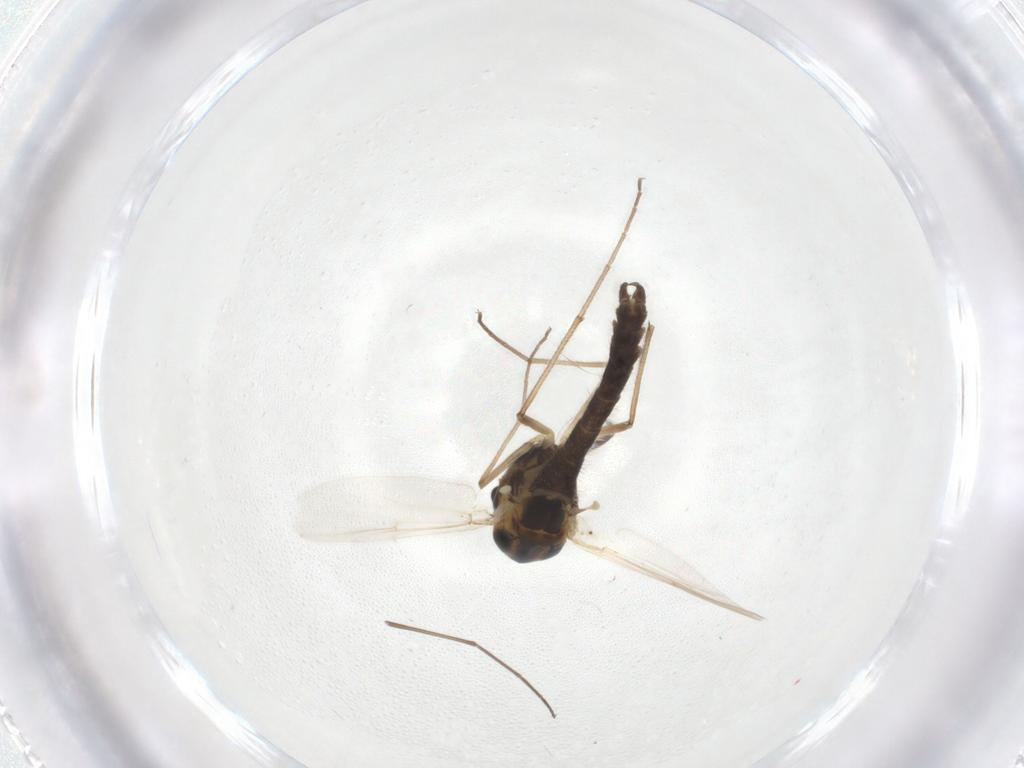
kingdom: Animalia
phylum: Arthropoda
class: Insecta
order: Diptera
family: Chironomidae
